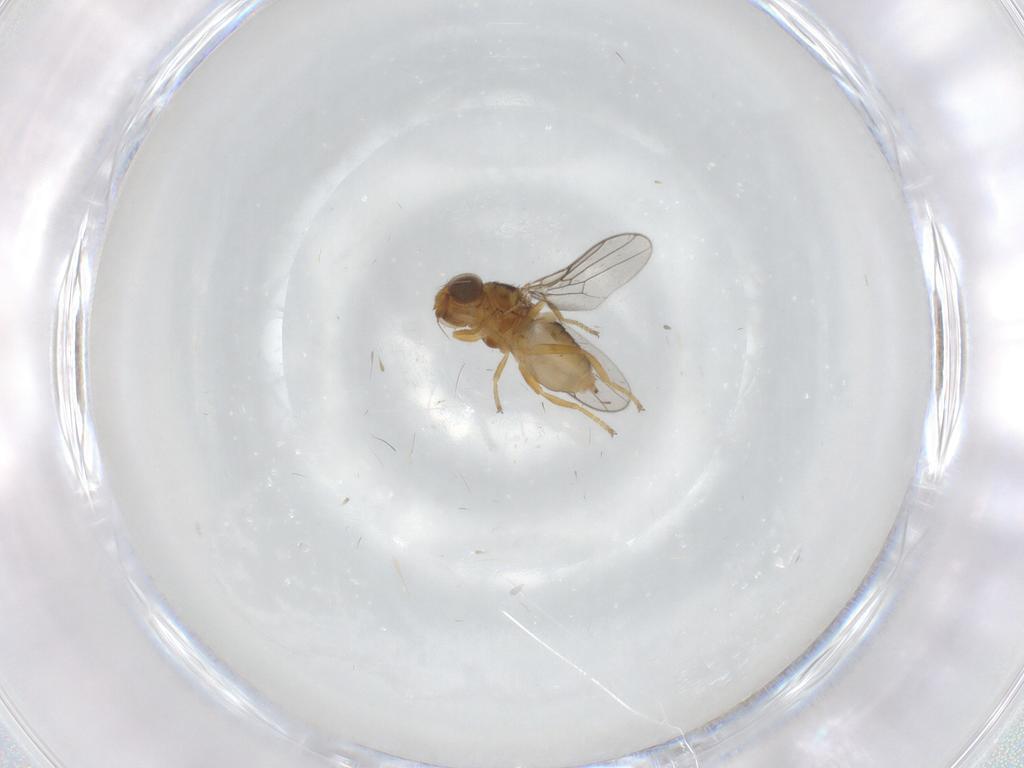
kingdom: Animalia
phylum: Arthropoda
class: Insecta
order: Diptera
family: Chloropidae
